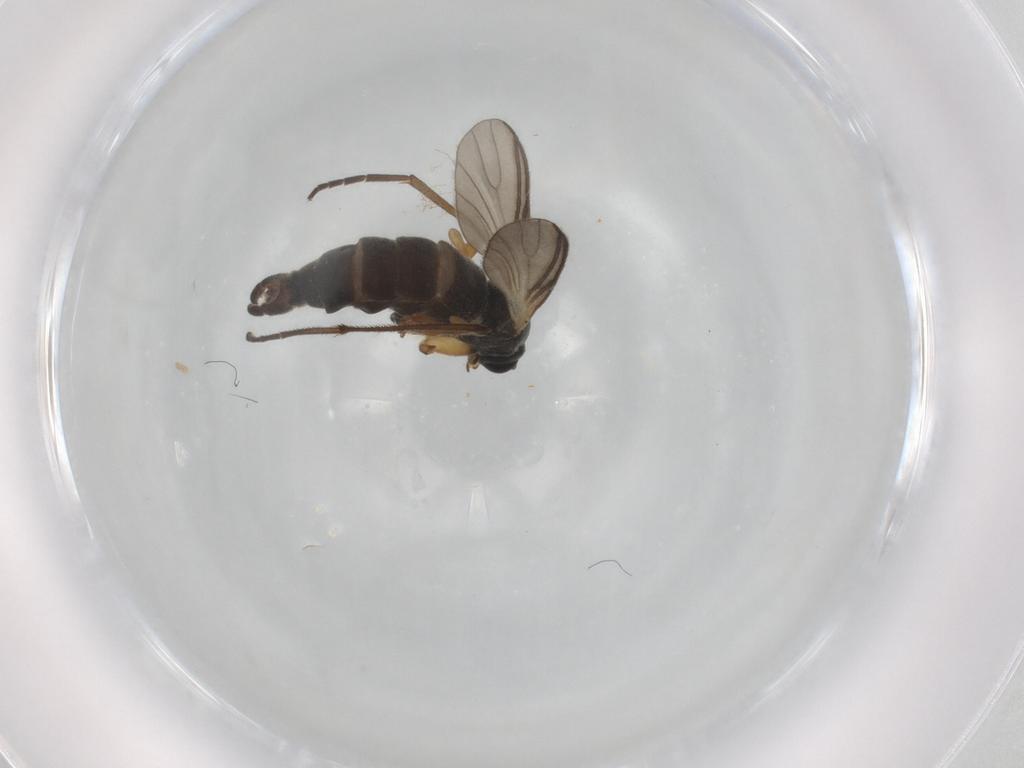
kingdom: Animalia
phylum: Arthropoda
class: Insecta
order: Diptera
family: Sciaridae
